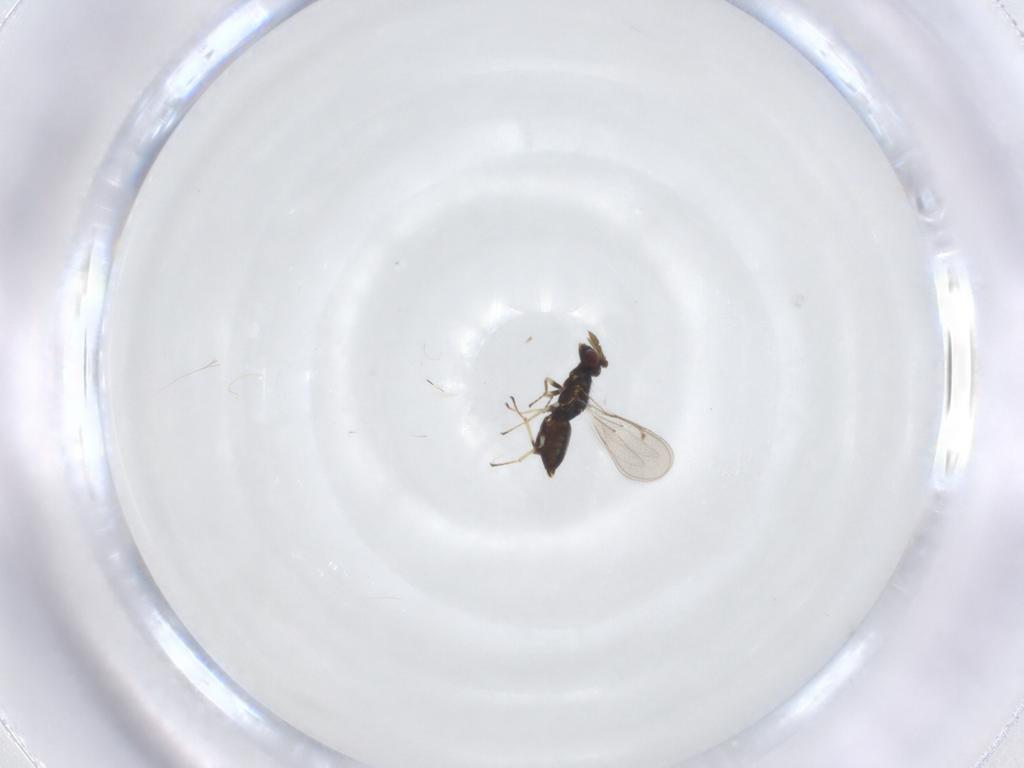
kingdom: Animalia
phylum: Arthropoda
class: Insecta
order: Hymenoptera
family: Eulophidae
